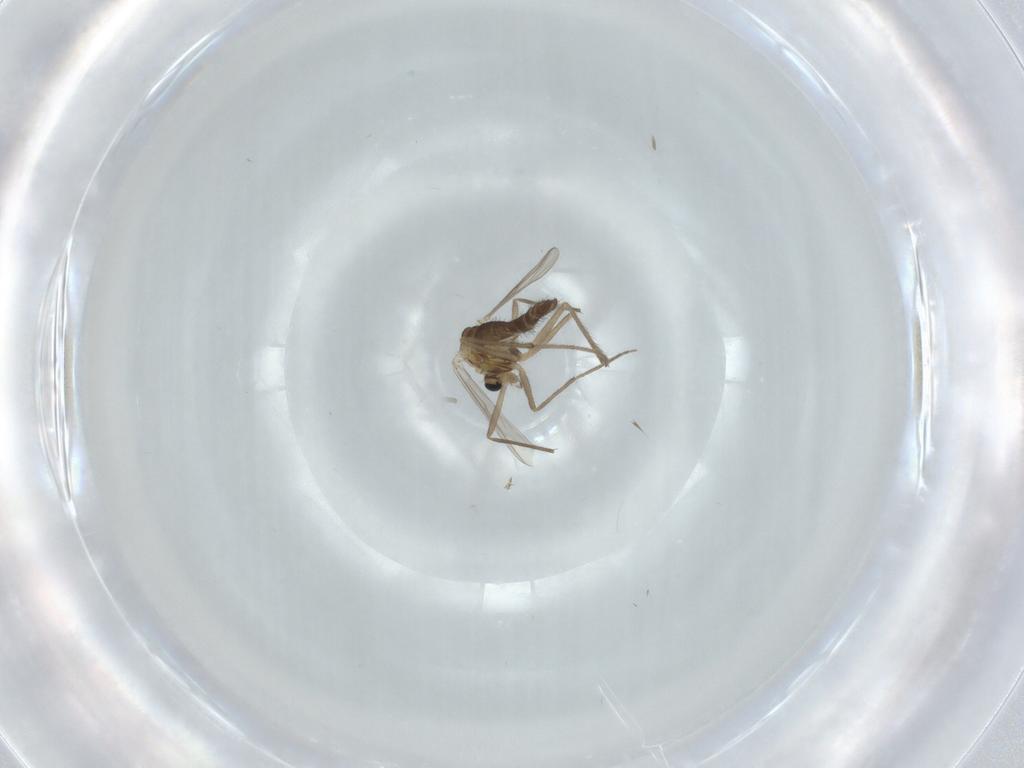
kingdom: Animalia
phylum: Arthropoda
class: Insecta
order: Diptera
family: Chironomidae
